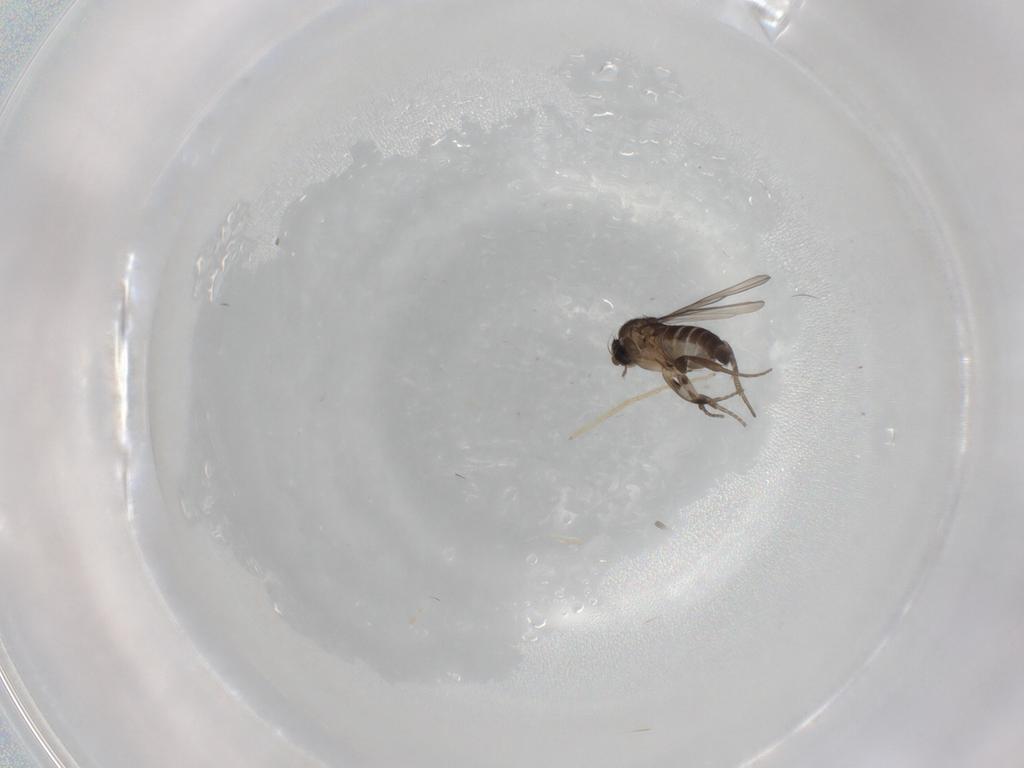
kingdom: Animalia
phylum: Arthropoda
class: Insecta
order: Diptera
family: Phoridae
